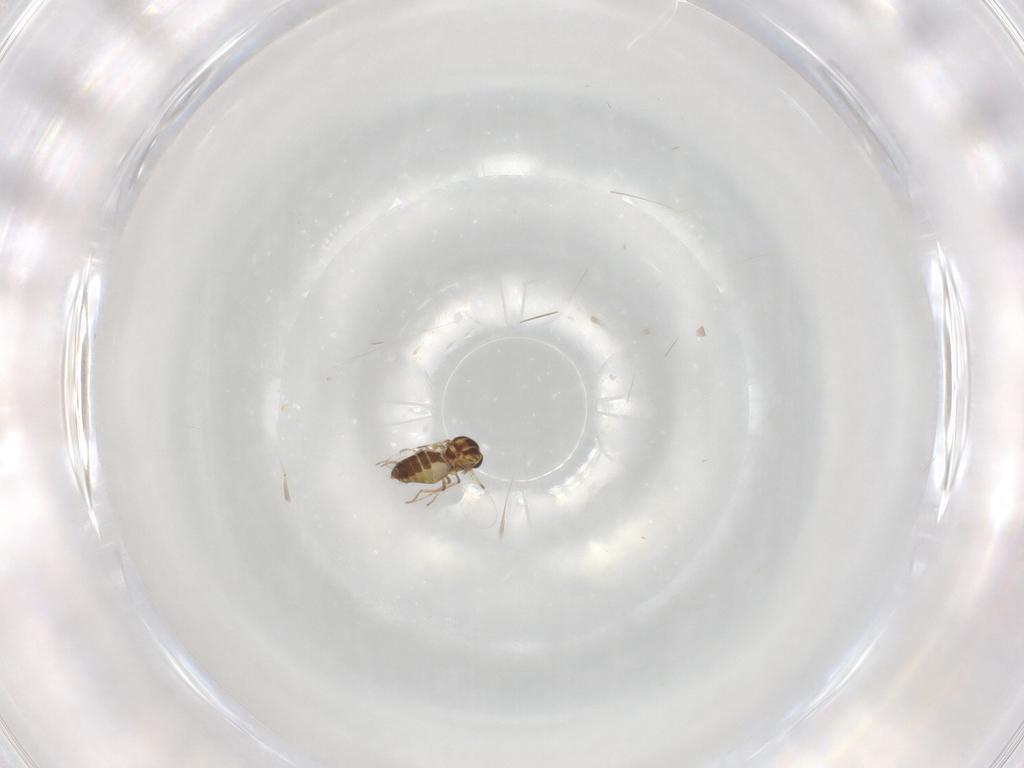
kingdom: Animalia
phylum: Arthropoda
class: Insecta
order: Diptera
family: Ceratopogonidae
